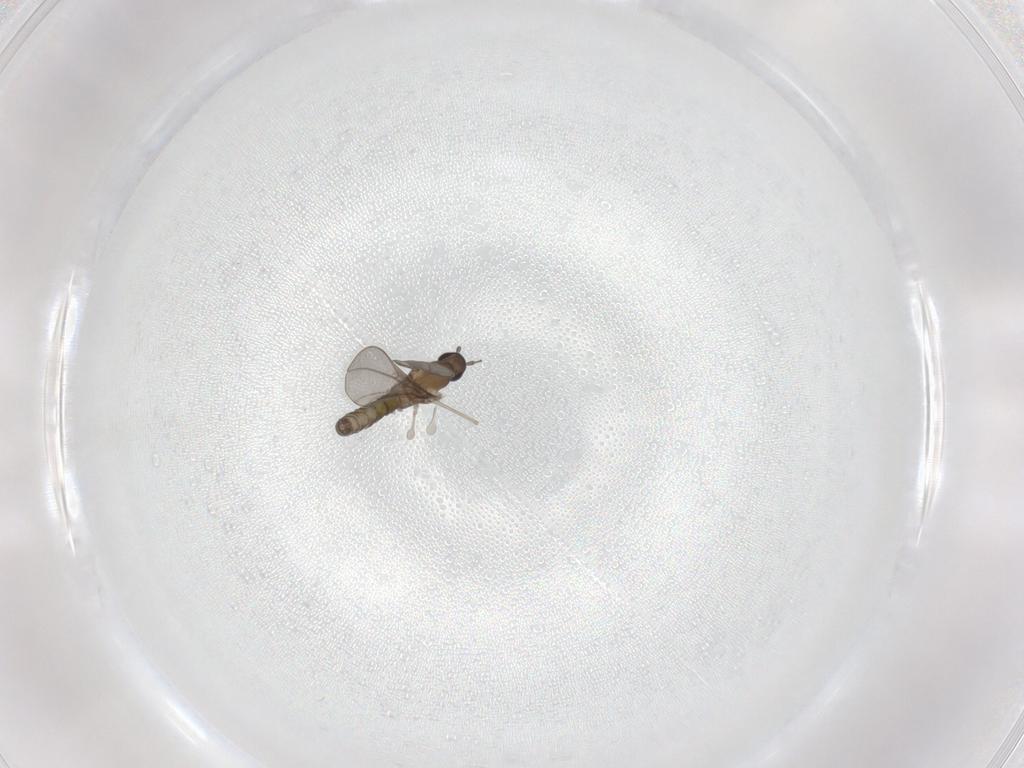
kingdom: Animalia
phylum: Arthropoda
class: Insecta
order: Diptera
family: Cecidomyiidae
